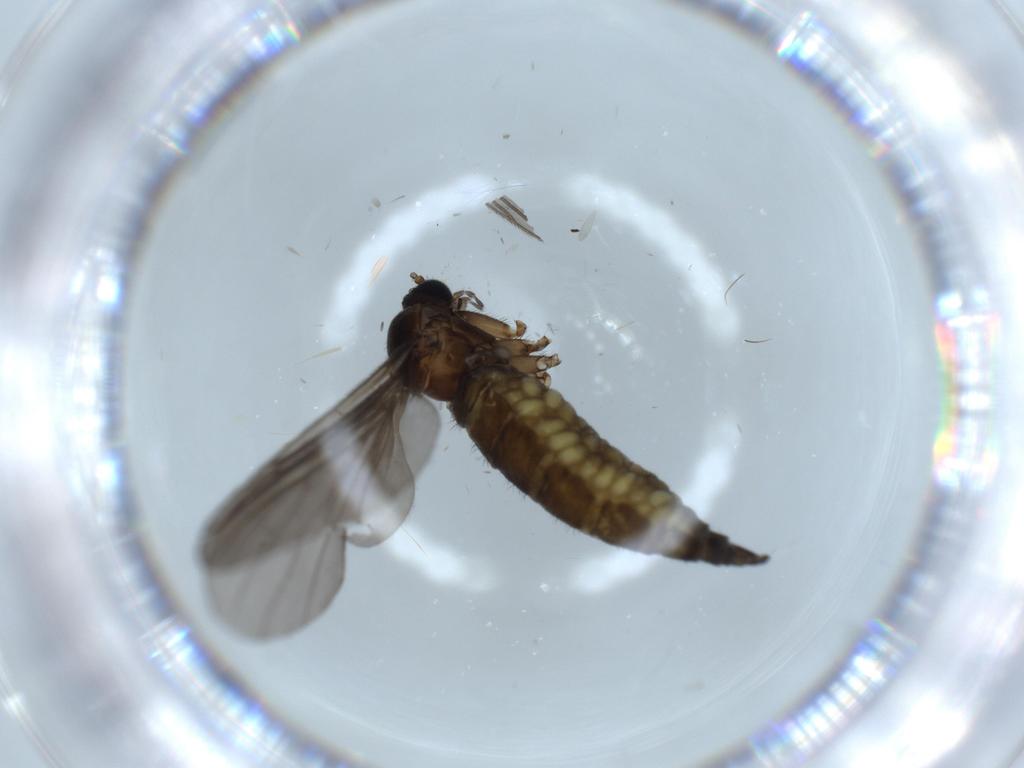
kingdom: Animalia
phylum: Arthropoda
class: Insecta
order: Diptera
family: Sciaridae
